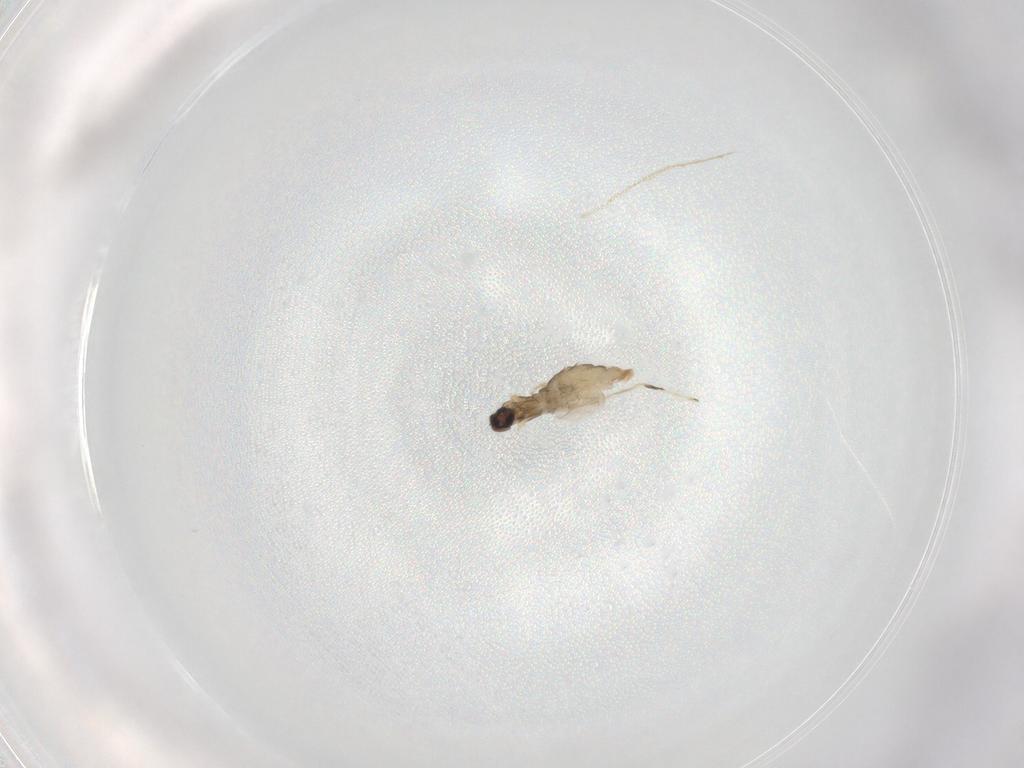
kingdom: Animalia
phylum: Arthropoda
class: Insecta
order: Diptera
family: Cecidomyiidae
